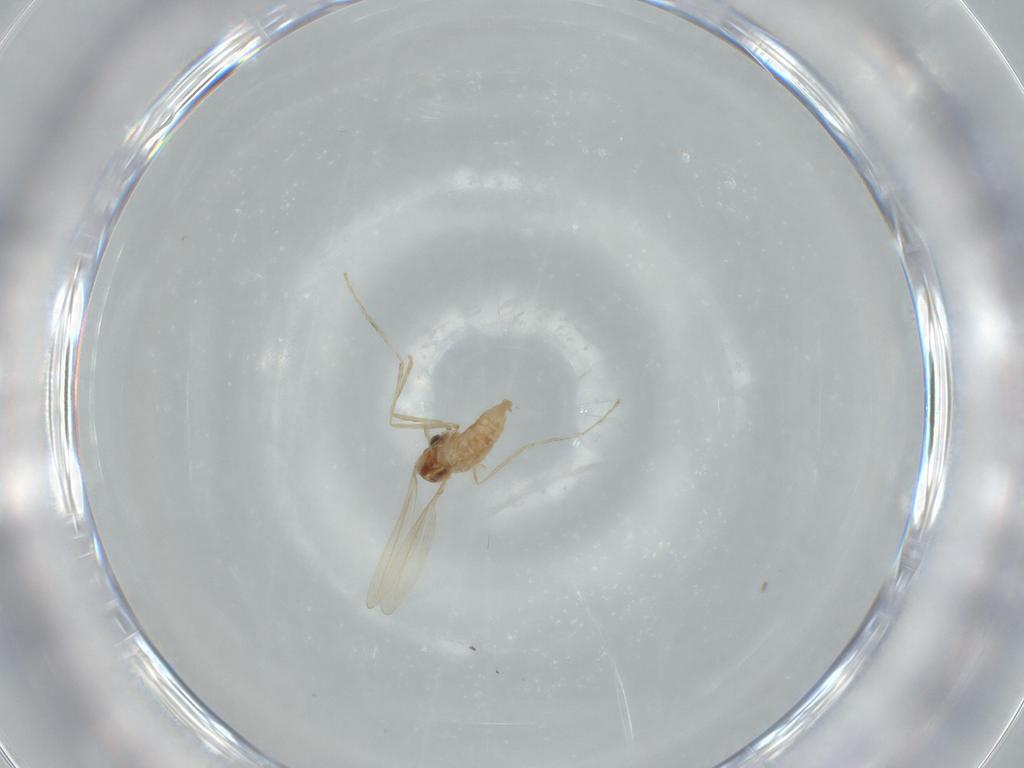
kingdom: Animalia
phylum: Arthropoda
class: Insecta
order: Diptera
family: Cecidomyiidae
